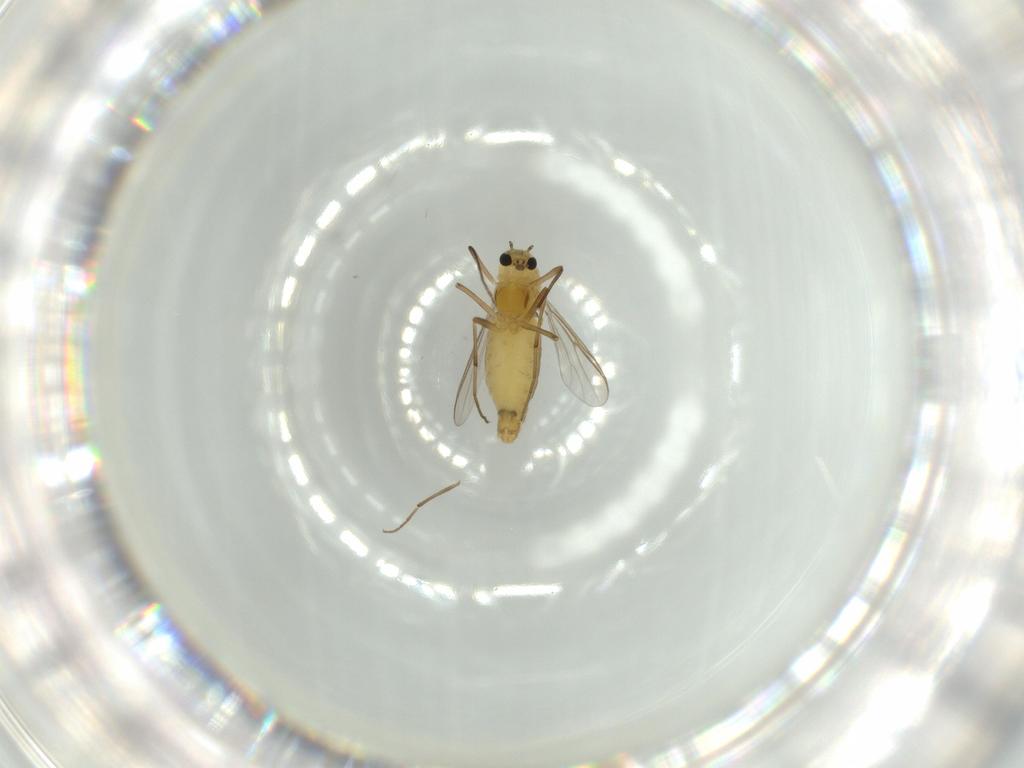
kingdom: Animalia
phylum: Arthropoda
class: Insecta
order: Diptera
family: Chironomidae
